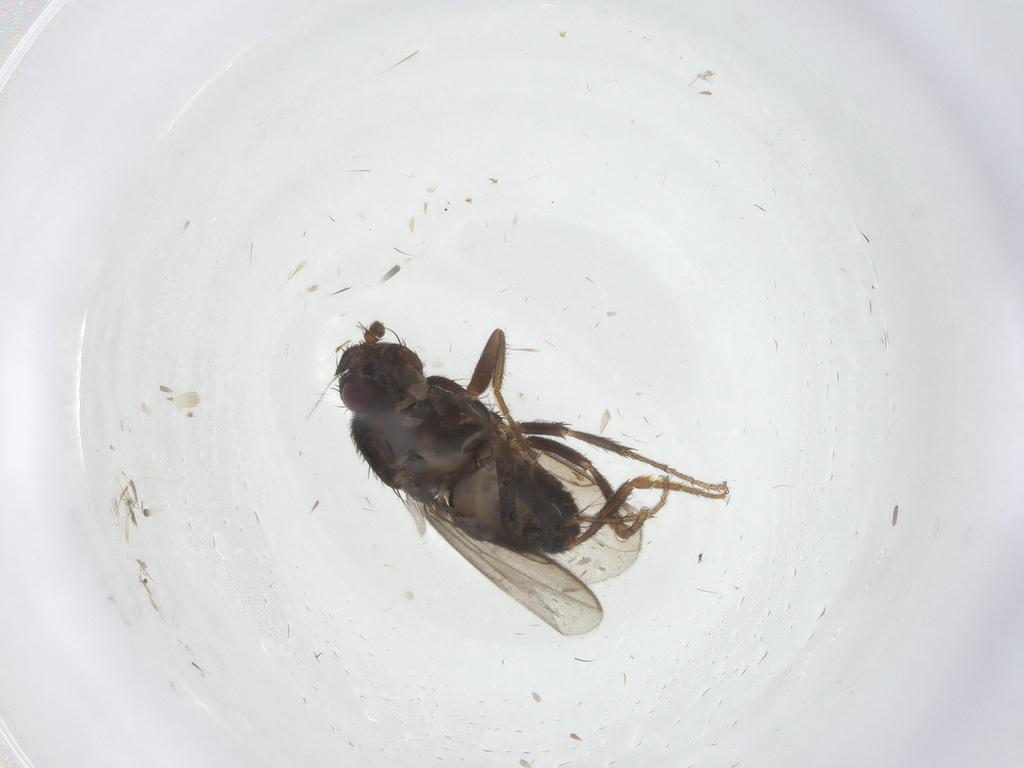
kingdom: Animalia
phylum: Arthropoda
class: Insecta
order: Diptera
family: Sphaeroceridae
